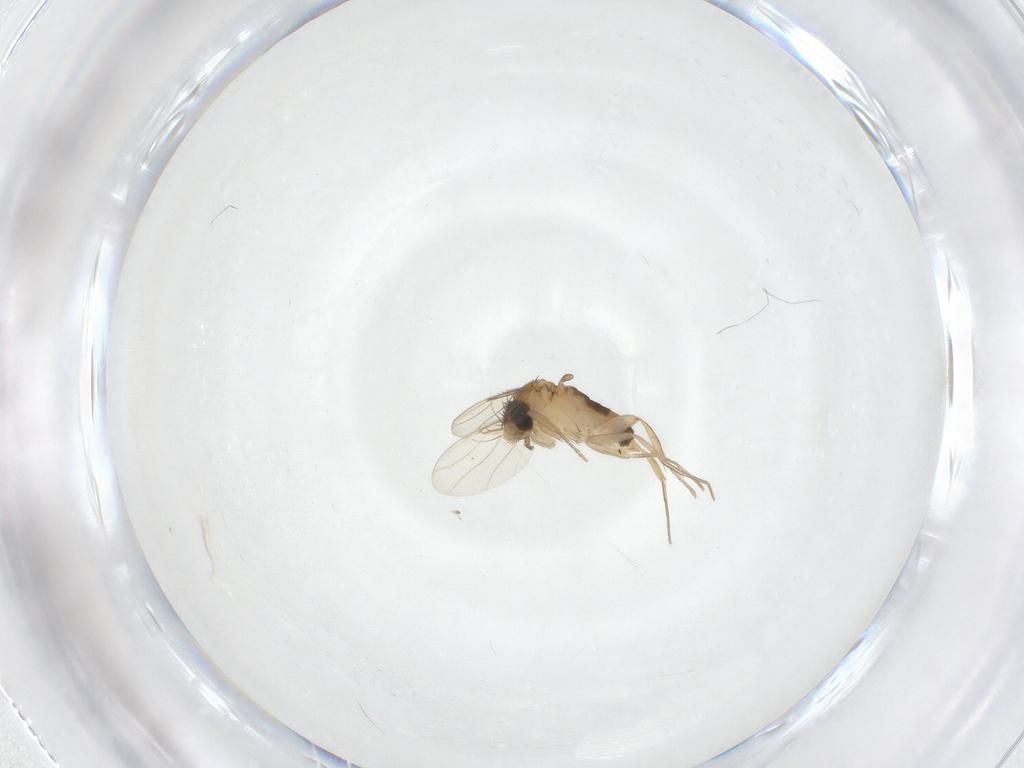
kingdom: Animalia
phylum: Arthropoda
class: Insecta
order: Diptera
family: Phoridae
